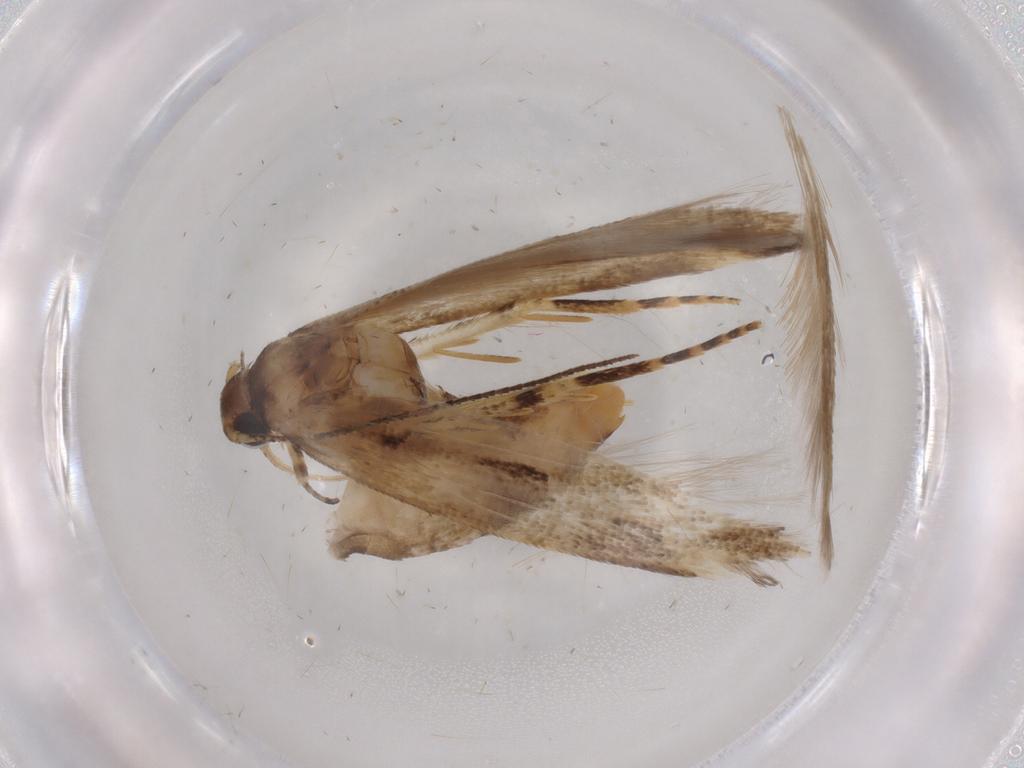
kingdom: Animalia
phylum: Arthropoda
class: Insecta
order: Lepidoptera
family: Gelechiidae
